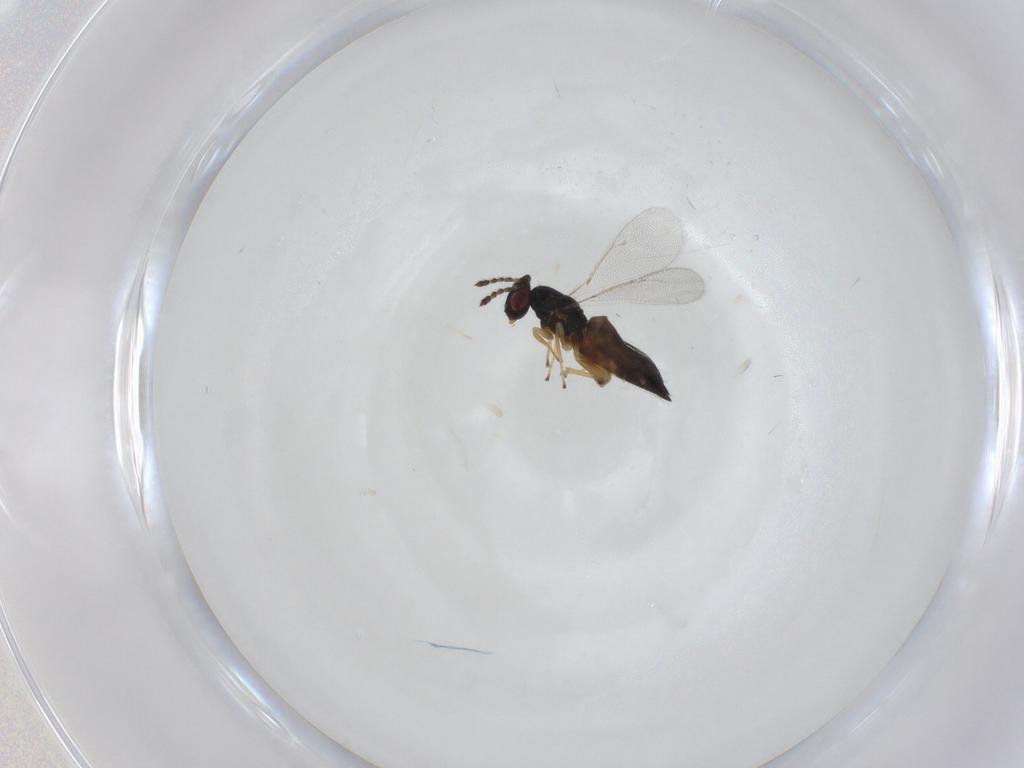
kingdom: Animalia
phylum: Arthropoda
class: Insecta
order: Hymenoptera
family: Eulophidae
